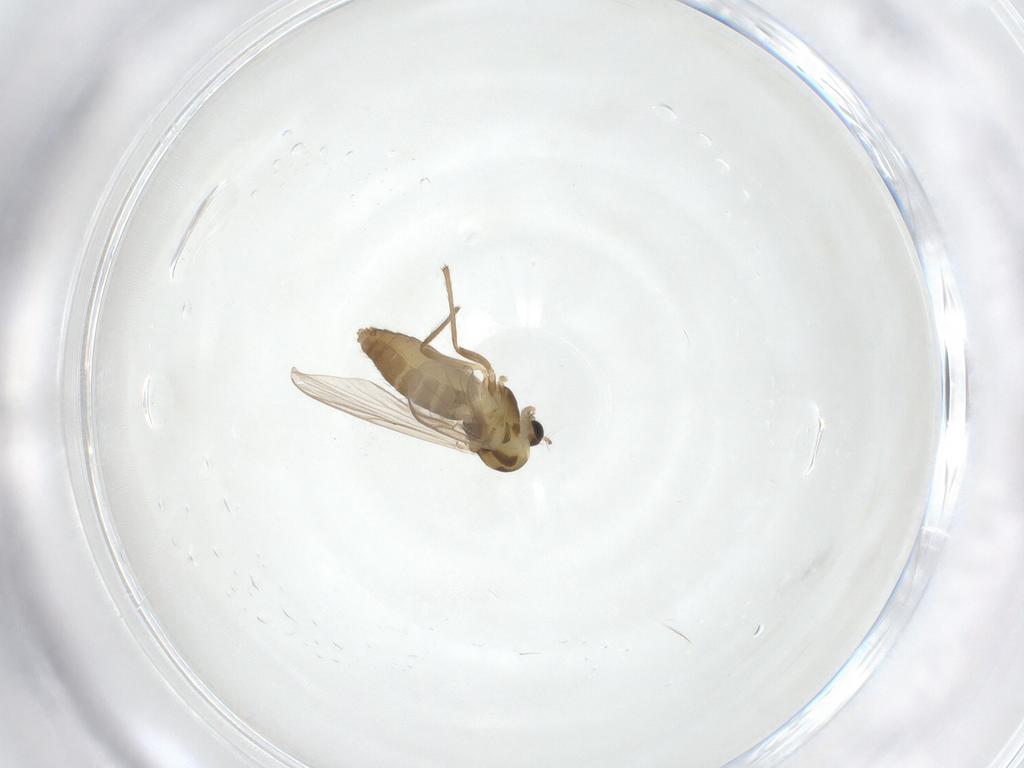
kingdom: Animalia
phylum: Arthropoda
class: Insecta
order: Diptera
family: Chironomidae
